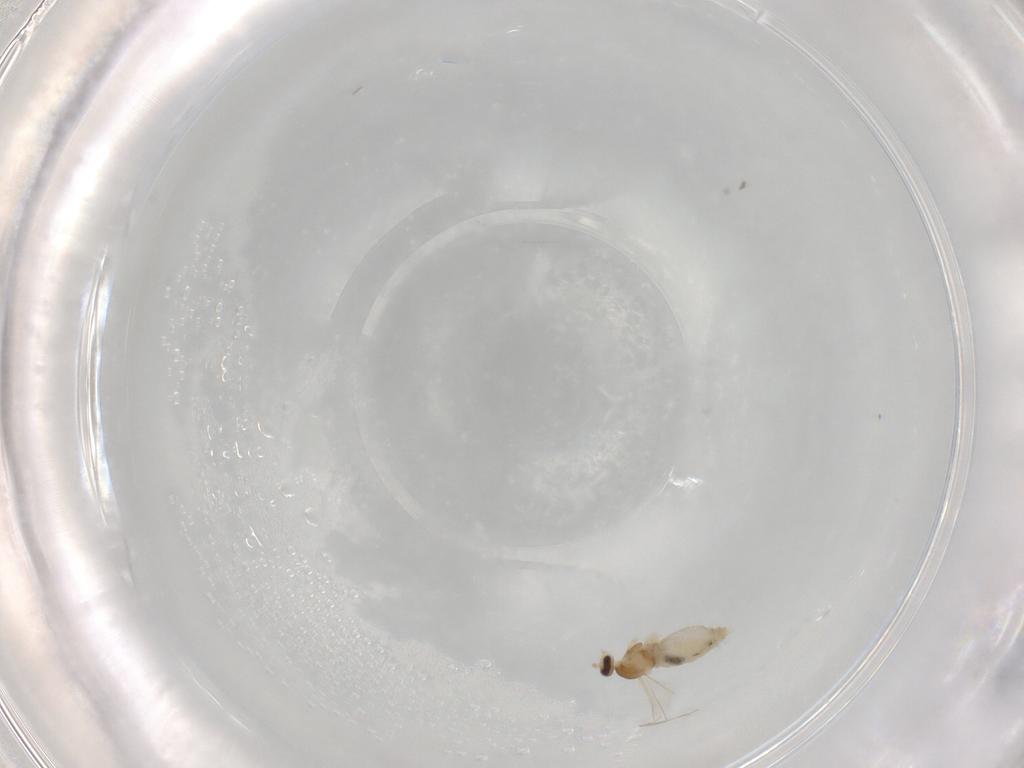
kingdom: Animalia
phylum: Arthropoda
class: Insecta
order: Diptera
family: Cecidomyiidae
